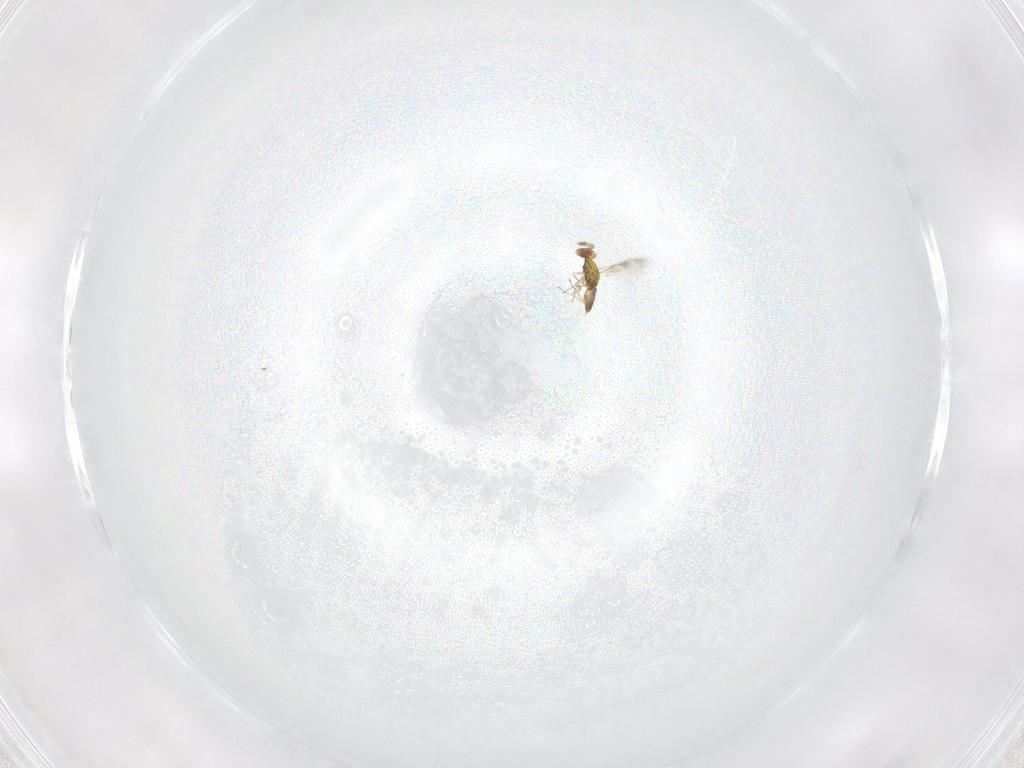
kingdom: Animalia
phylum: Arthropoda
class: Insecta
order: Hymenoptera
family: Eulophidae
